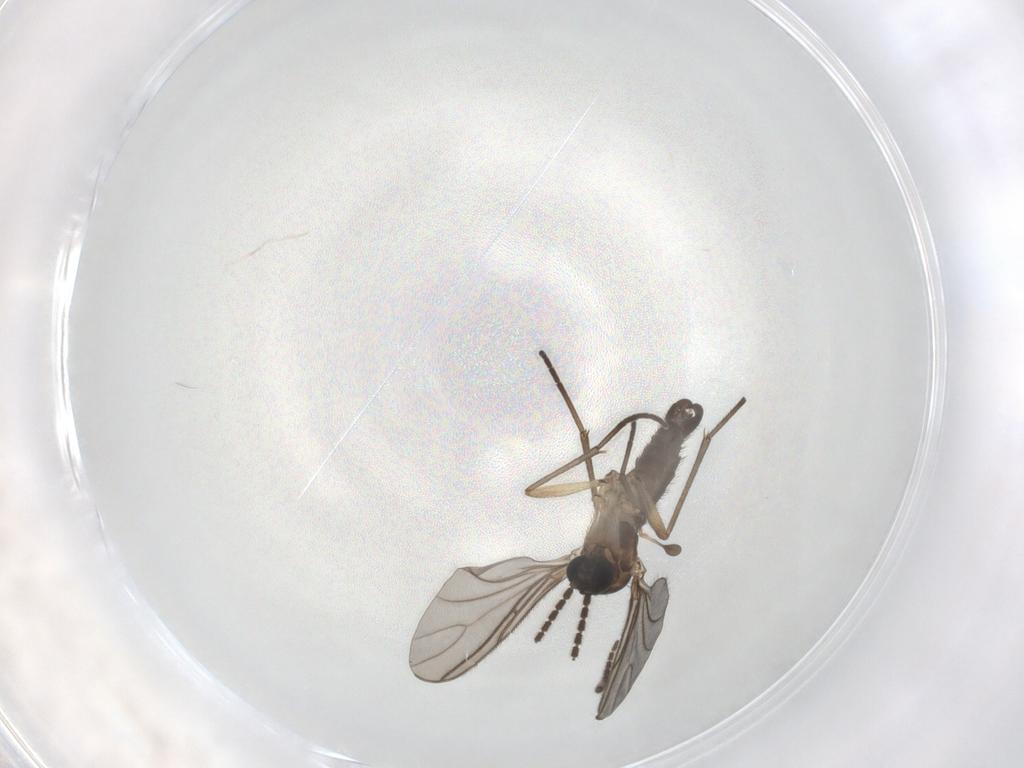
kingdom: Animalia
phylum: Arthropoda
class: Insecta
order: Diptera
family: Sciaridae
